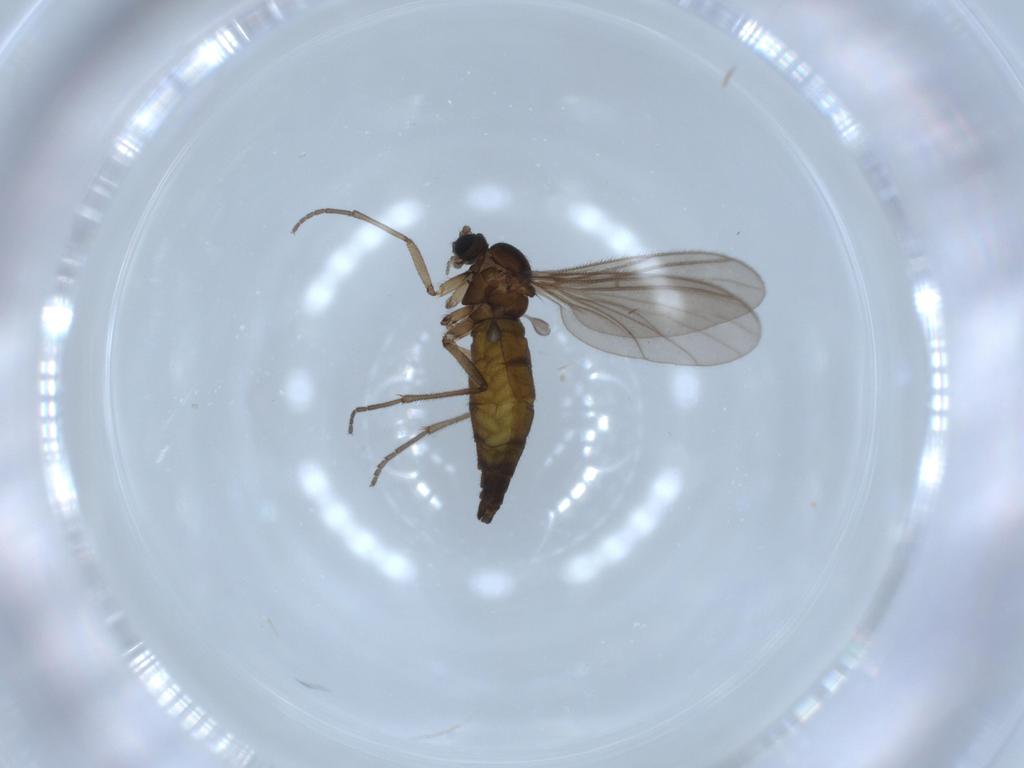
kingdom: Animalia
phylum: Arthropoda
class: Insecta
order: Diptera
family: Sciaridae
